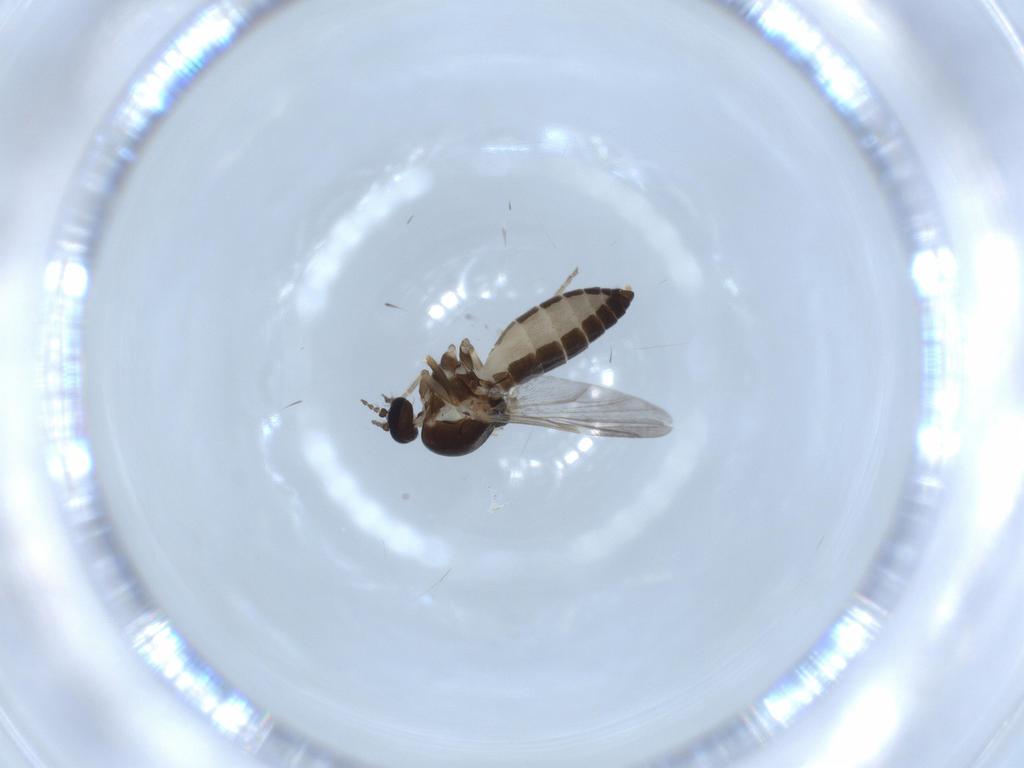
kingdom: Animalia
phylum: Arthropoda
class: Insecta
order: Diptera
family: Ceratopogonidae
